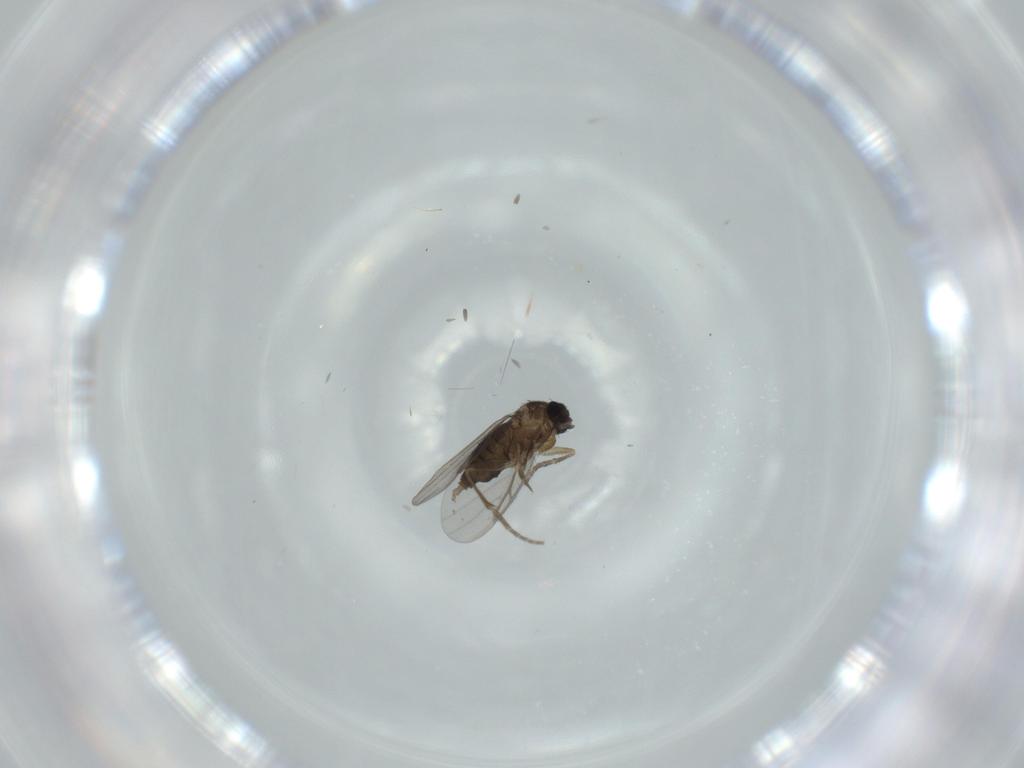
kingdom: Animalia
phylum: Arthropoda
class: Insecta
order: Diptera
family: Phoridae
